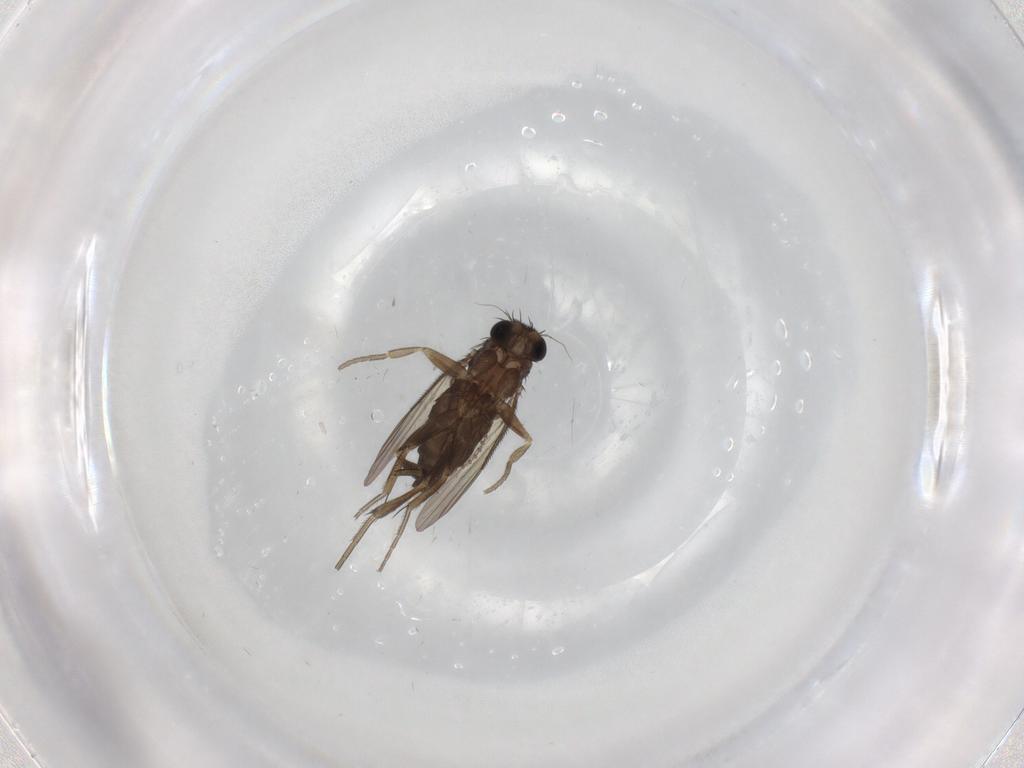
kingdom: Animalia
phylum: Arthropoda
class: Insecta
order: Diptera
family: Phoridae
